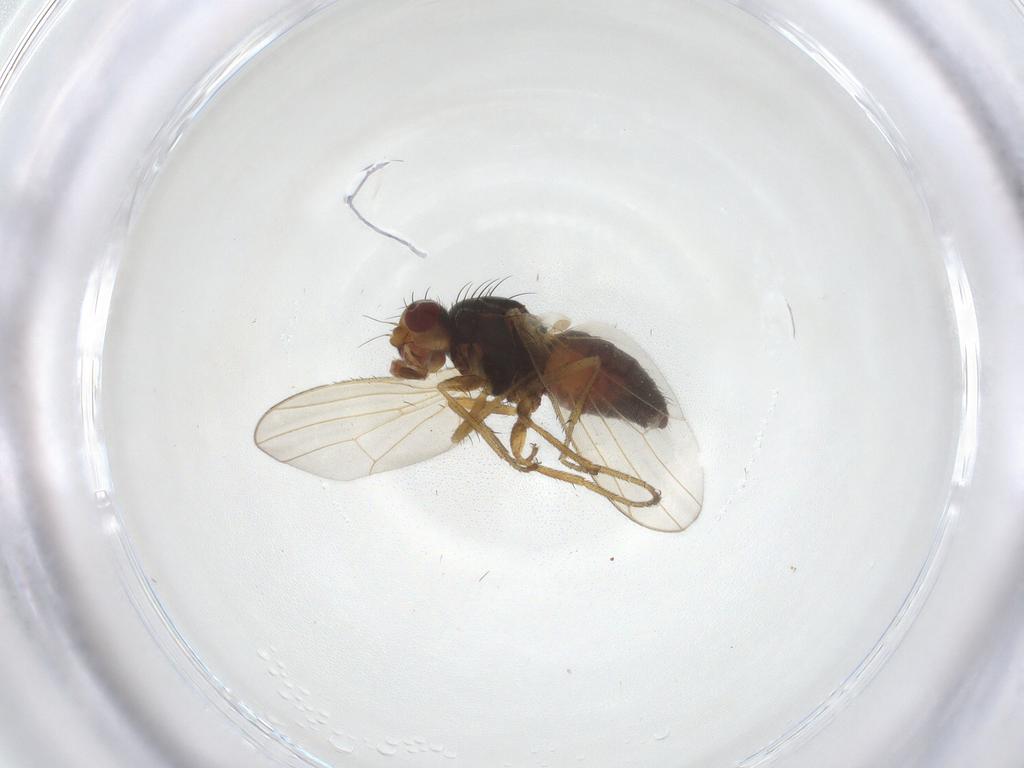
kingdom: Animalia
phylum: Arthropoda
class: Insecta
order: Diptera
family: Heleomyzidae
